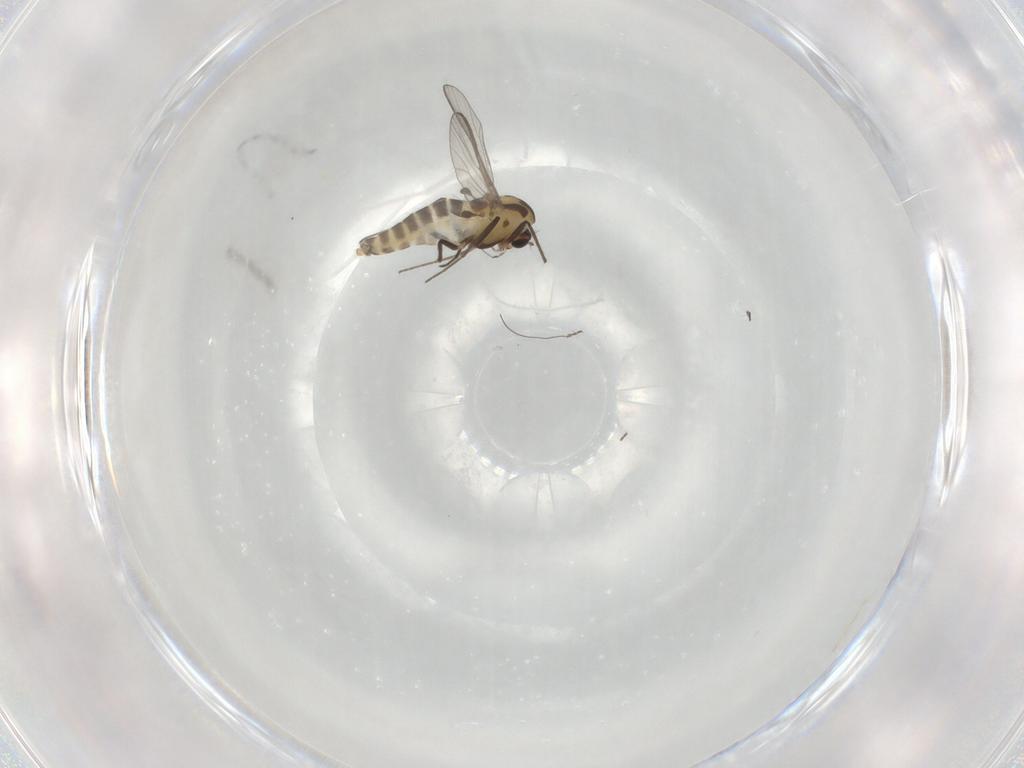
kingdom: Animalia
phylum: Arthropoda
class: Insecta
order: Diptera
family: Chironomidae
